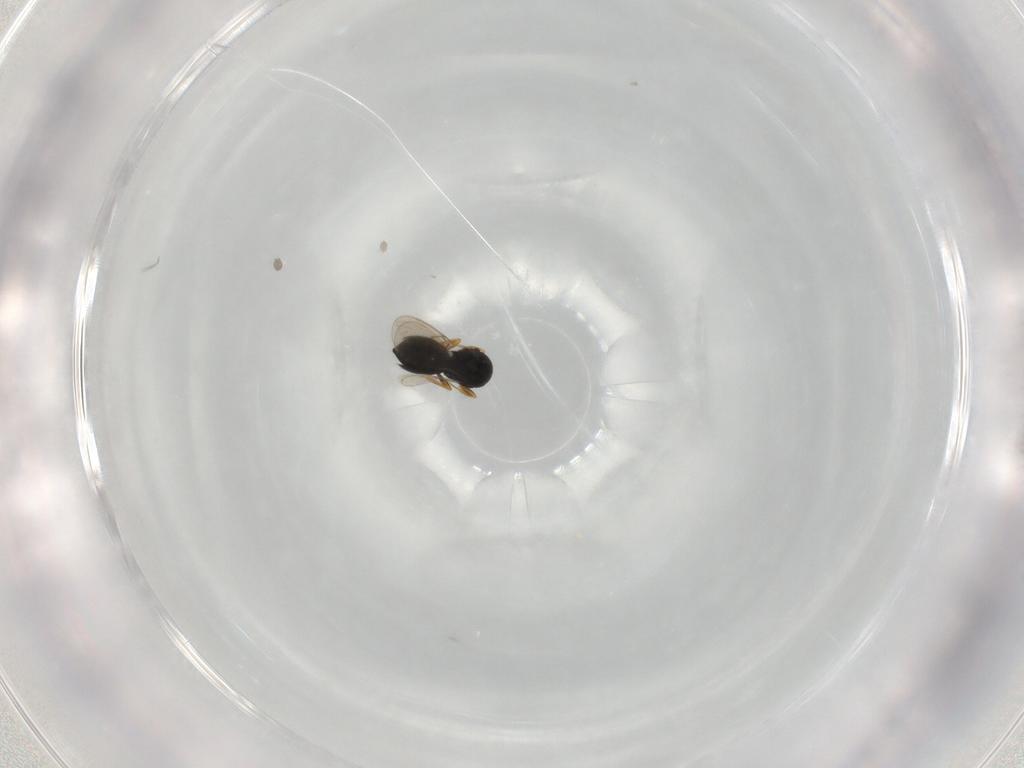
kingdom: Animalia
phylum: Arthropoda
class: Insecta
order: Hymenoptera
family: Scelionidae
